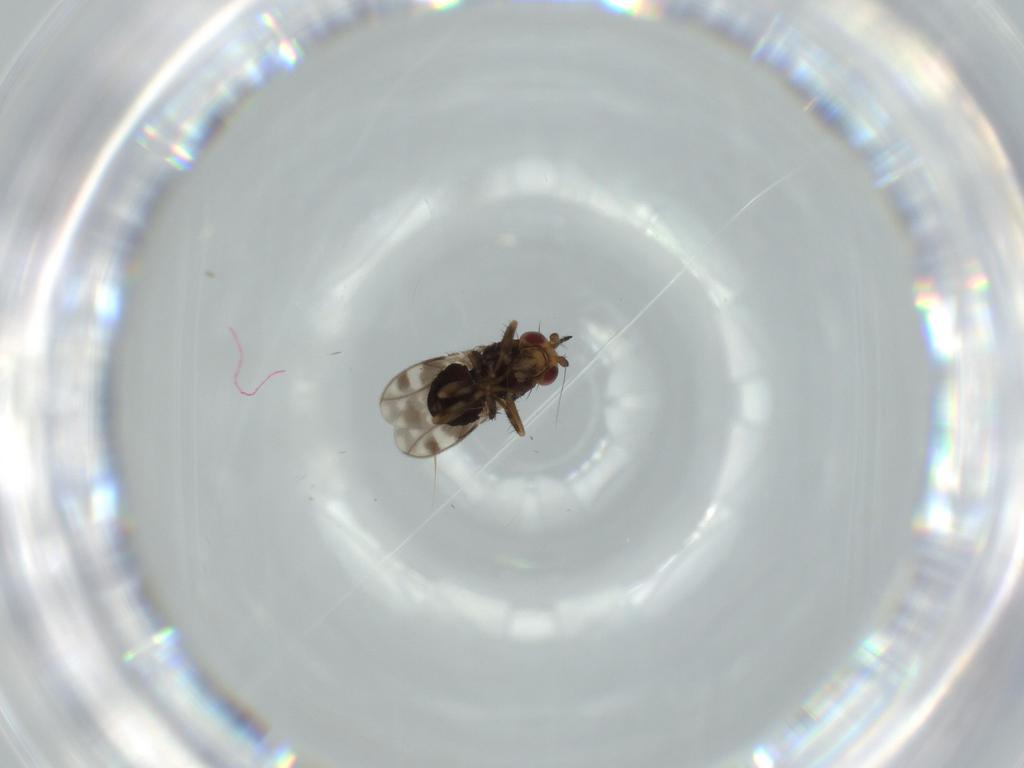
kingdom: Animalia
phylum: Arthropoda
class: Insecta
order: Diptera
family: Sphaeroceridae
